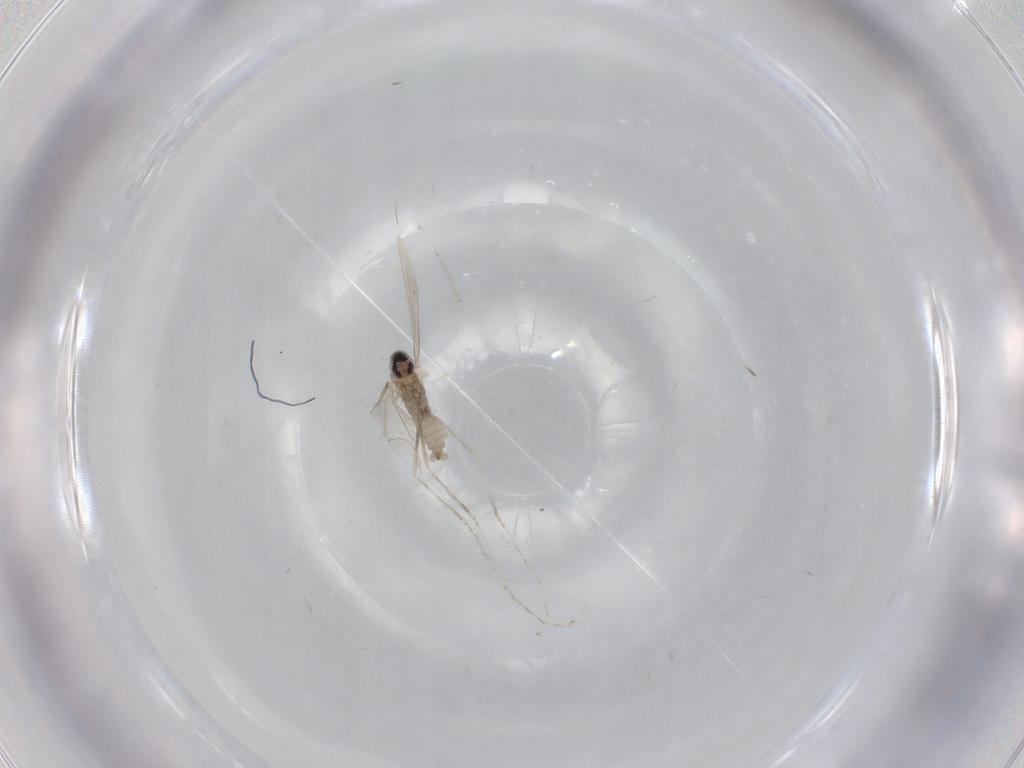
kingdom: Animalia
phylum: Arthropoda
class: Insecta
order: Diptera
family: Cecidomyiidae
